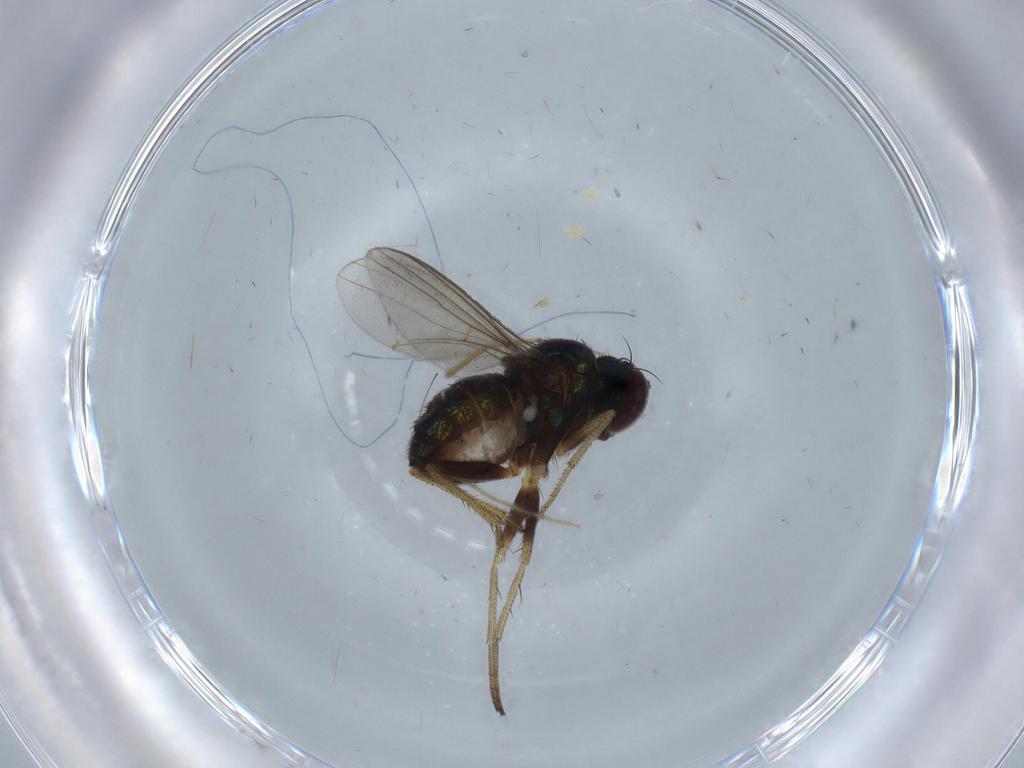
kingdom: Animalia
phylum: Arthropoda
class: Insecta
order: Diptera
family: Chironomidae
